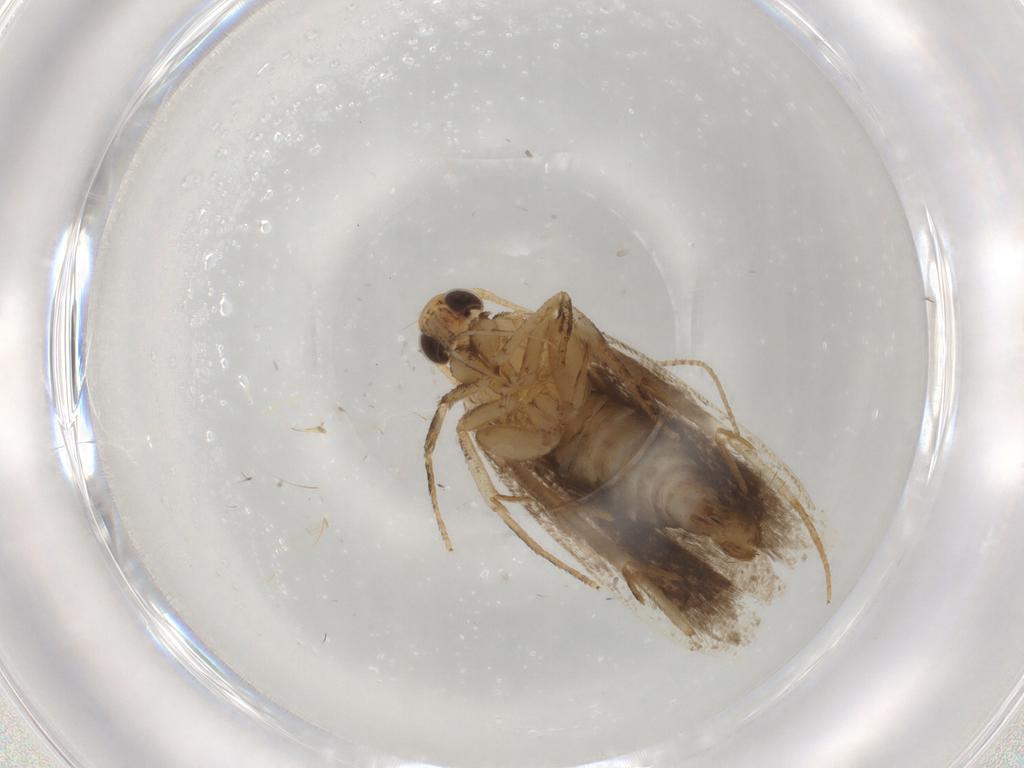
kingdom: Animalia
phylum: Arthropoda
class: Insecta
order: Lepidoptera
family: Gelechiidae
